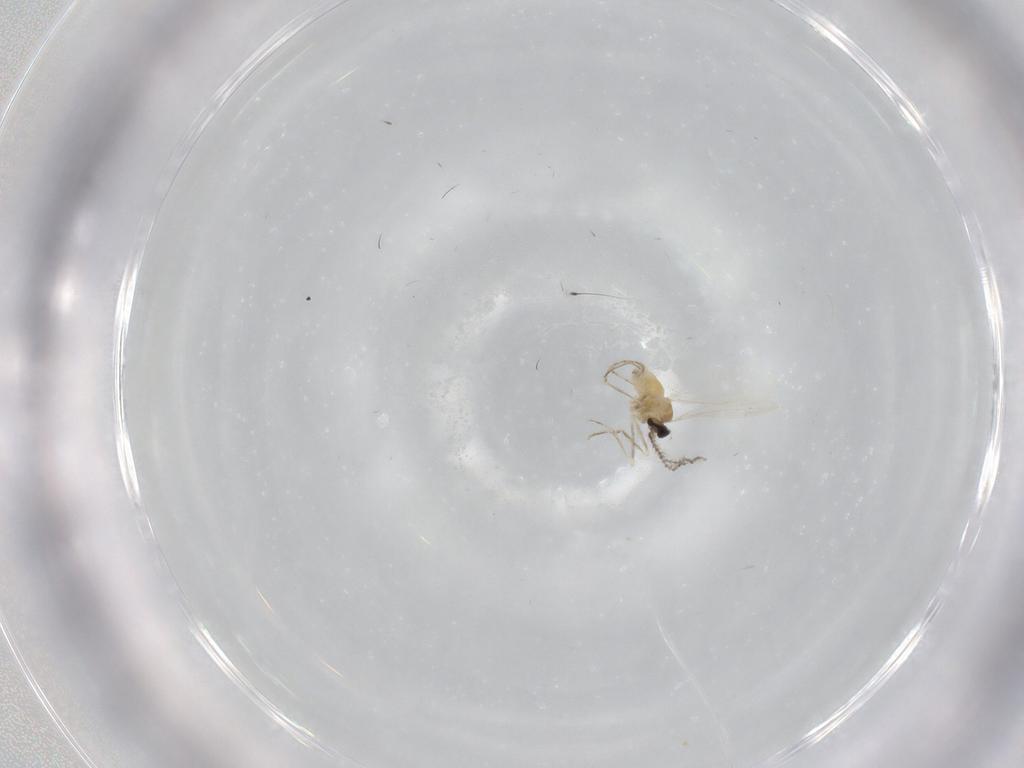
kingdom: Animalia
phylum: Arthropoda
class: Insecta
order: Diptera
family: Cecidomyiidae
